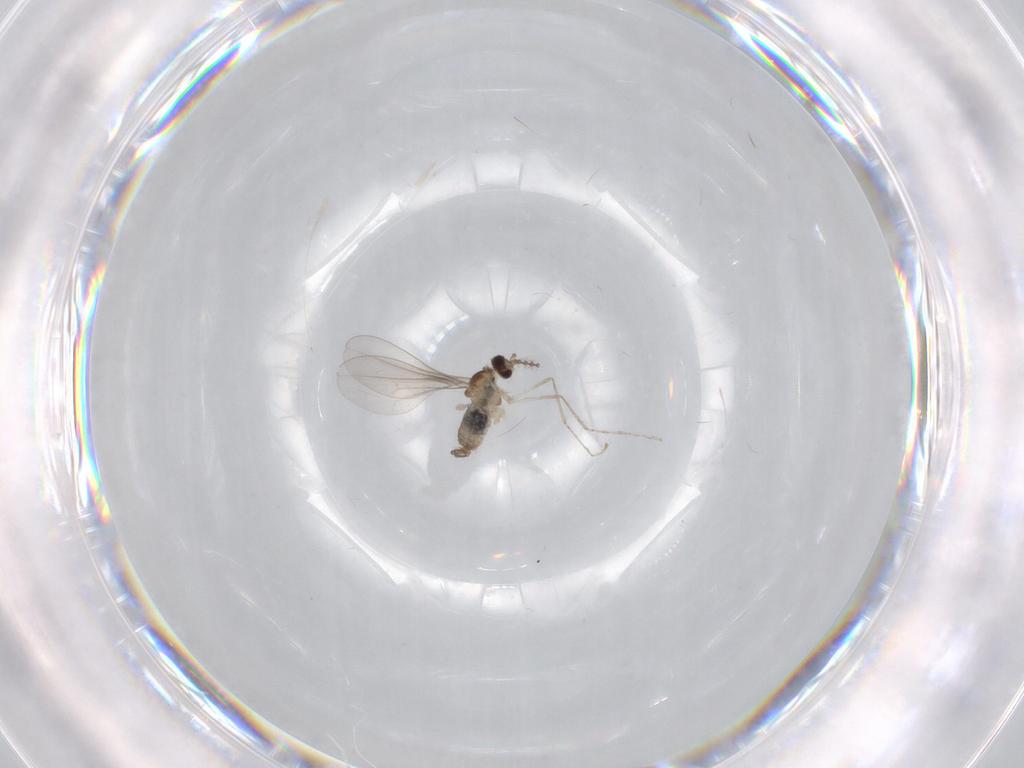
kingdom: Animalia
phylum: Arthropoda
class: Insecta
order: Diptera
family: Cecidomyiidae
